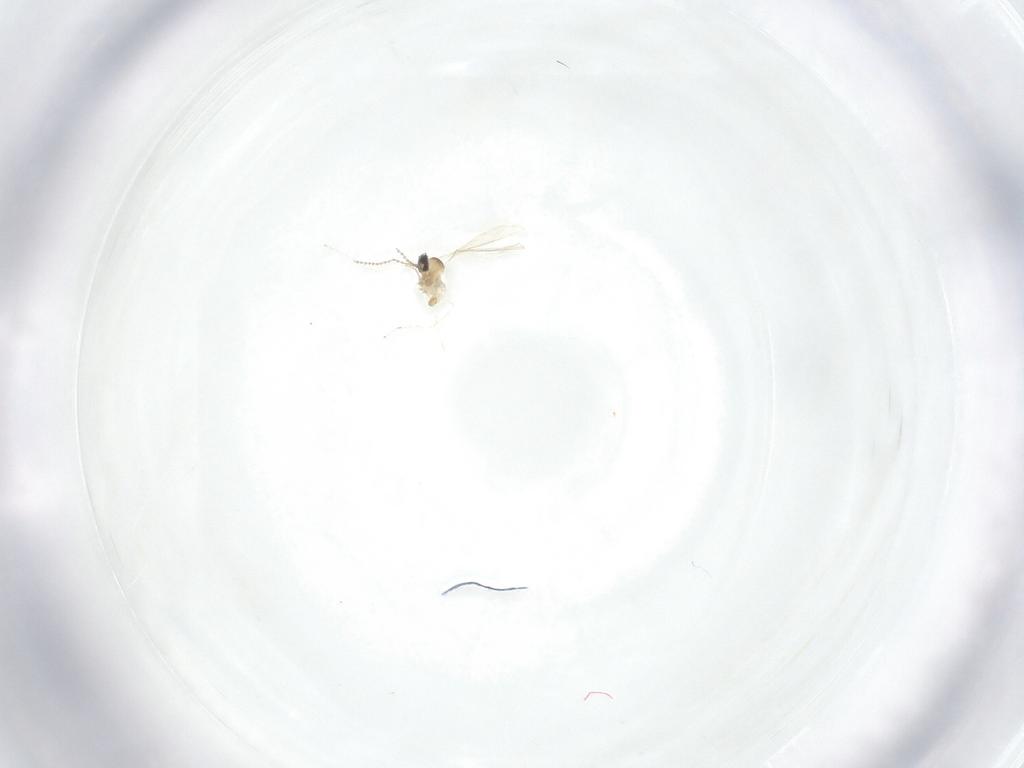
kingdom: Animalia
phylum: Arthropoda
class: Insecta
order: Diptera
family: Cecidomyiidae
